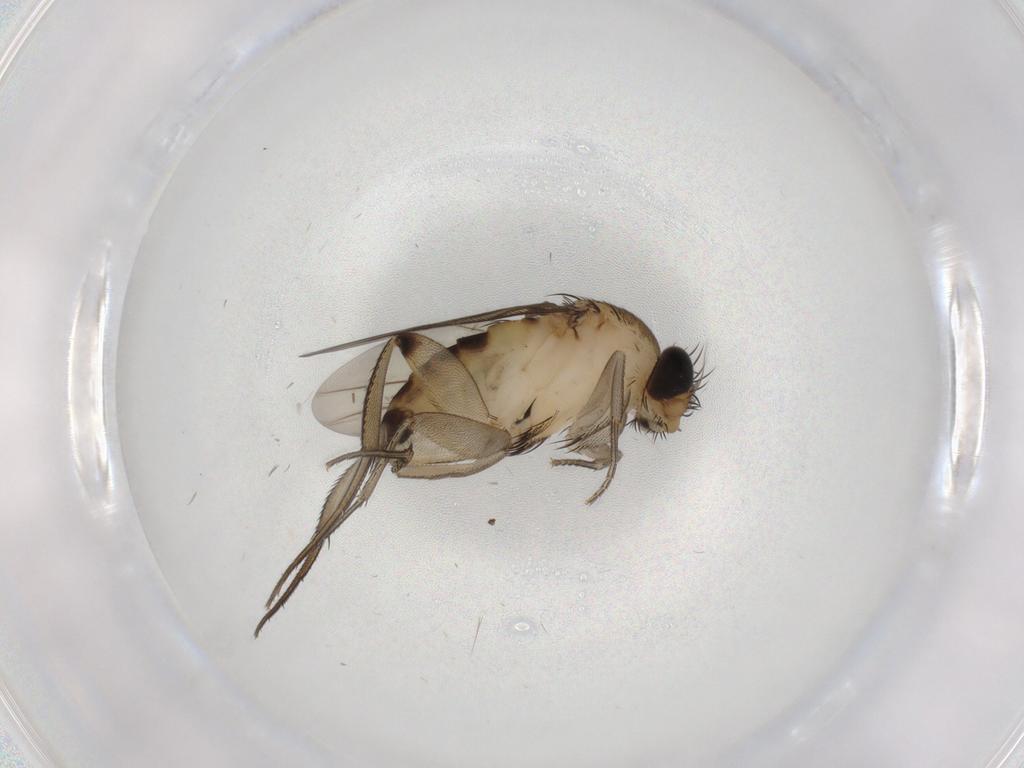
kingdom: Animalia
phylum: Arthropoda
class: Insecta
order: Diptera
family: Phoridae
